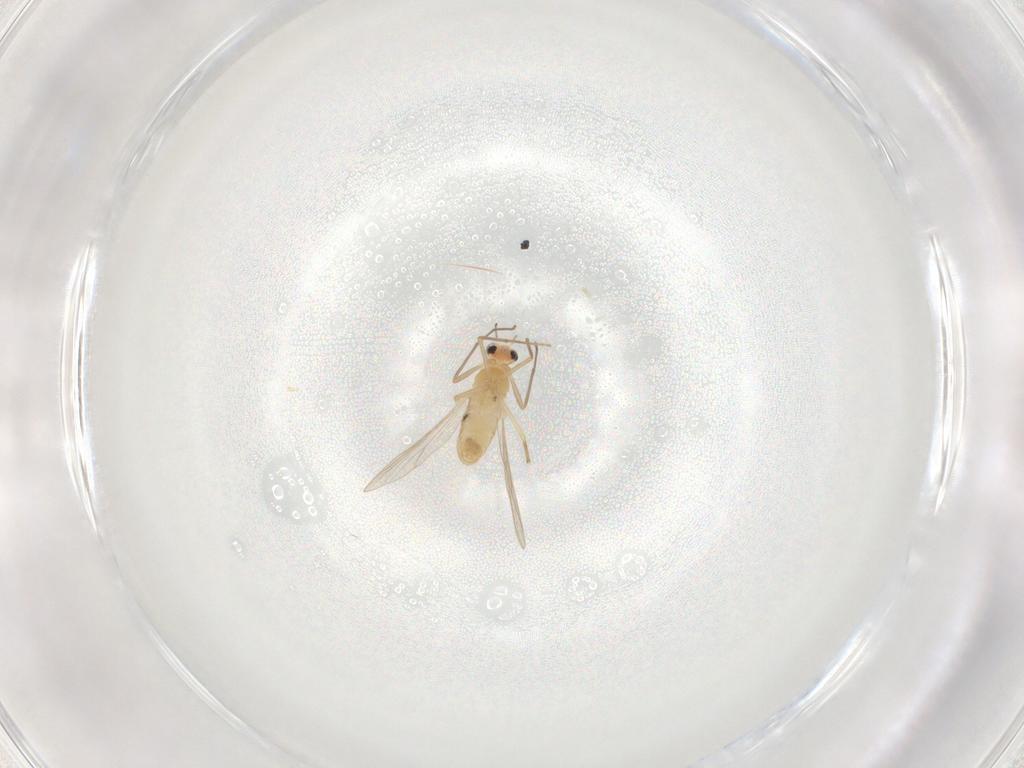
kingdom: Animalia
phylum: Arthropoda
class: Insecta
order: Diptera
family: Chironomidae
